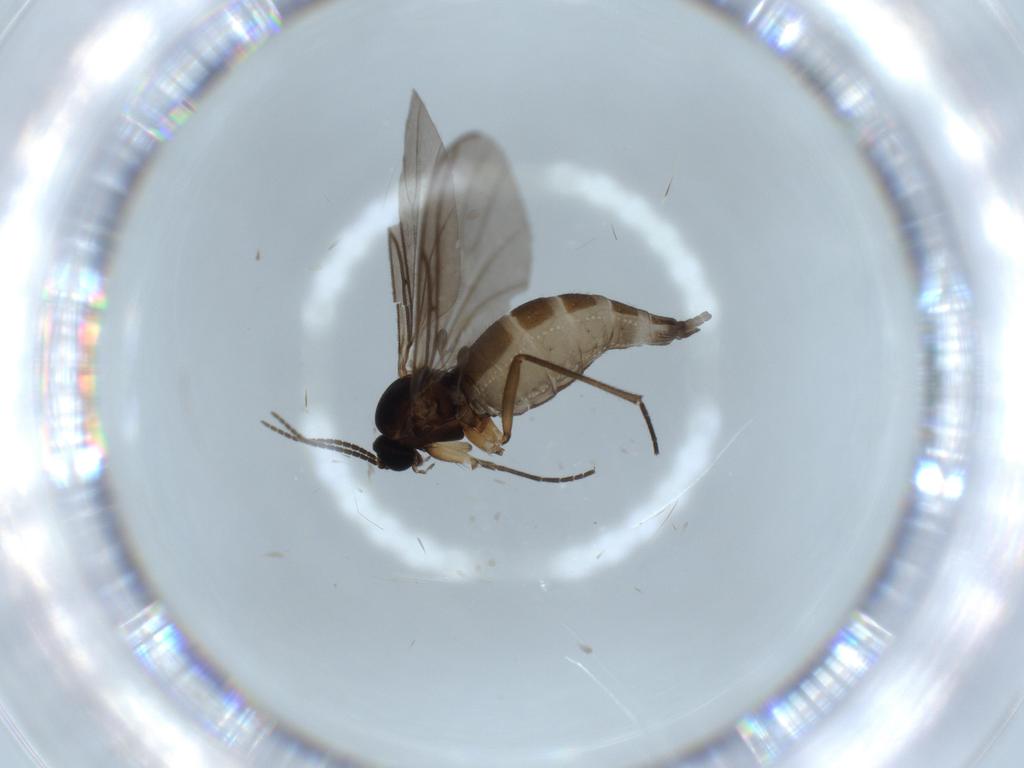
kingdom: Animalia
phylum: Arthropoda
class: Insecta
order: Diptera
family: Sciaridae
